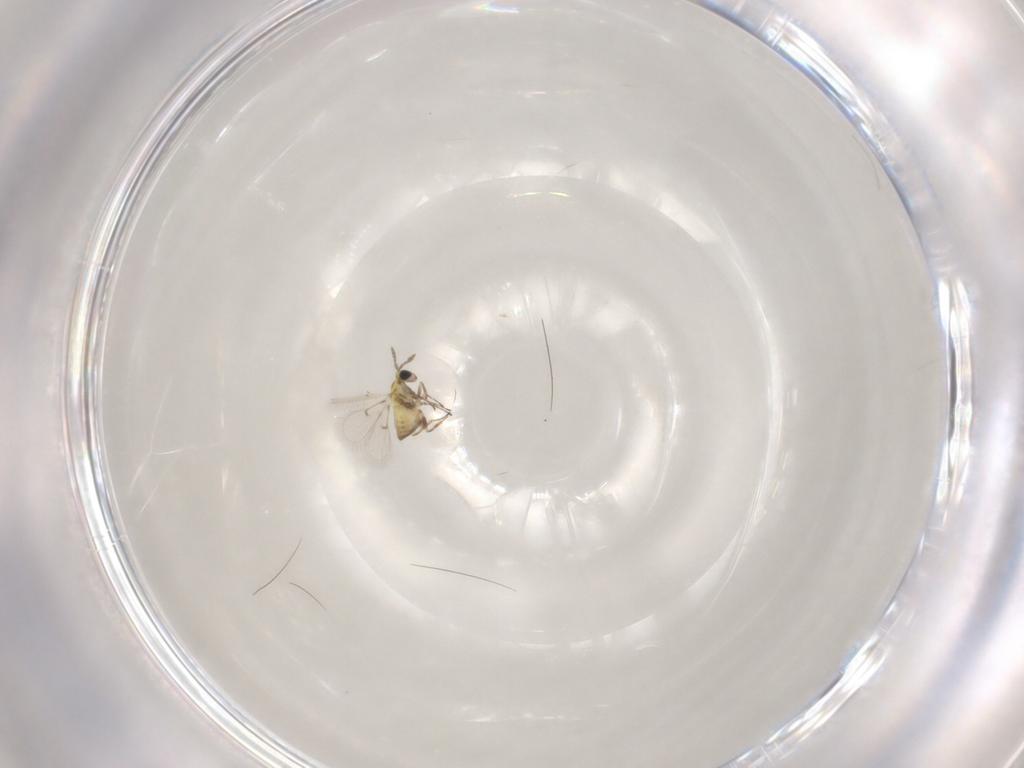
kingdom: Animalia
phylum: Arthropoda
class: Insecta
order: Hymenoptera
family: Trichogrammatidae
